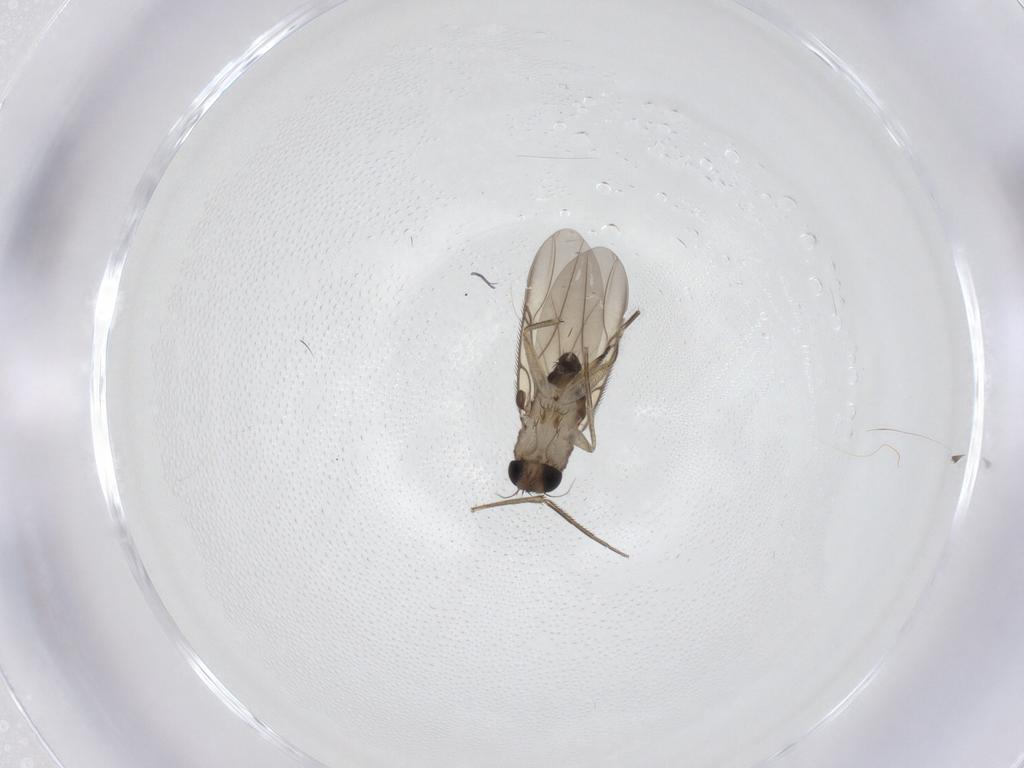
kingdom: Animalia
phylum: Arthropoda
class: Insecta
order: Diptera
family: Phoridae
